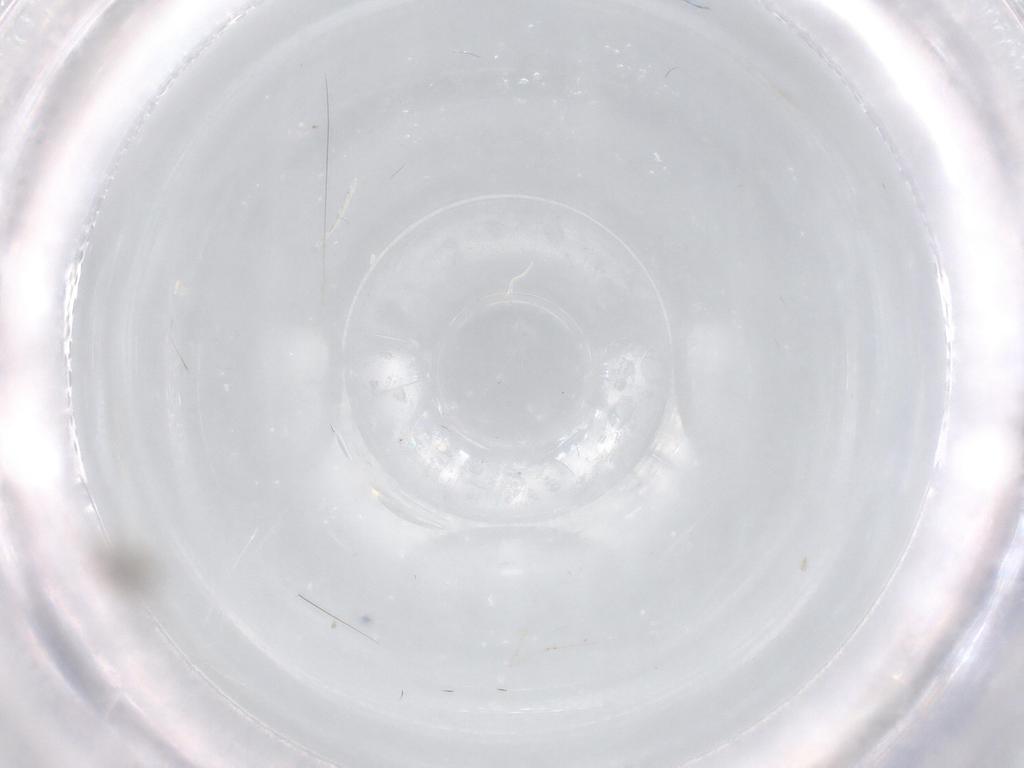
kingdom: Animalia
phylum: Arthropoda
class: Insecta
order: Diptera
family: Cecidomyiidae
